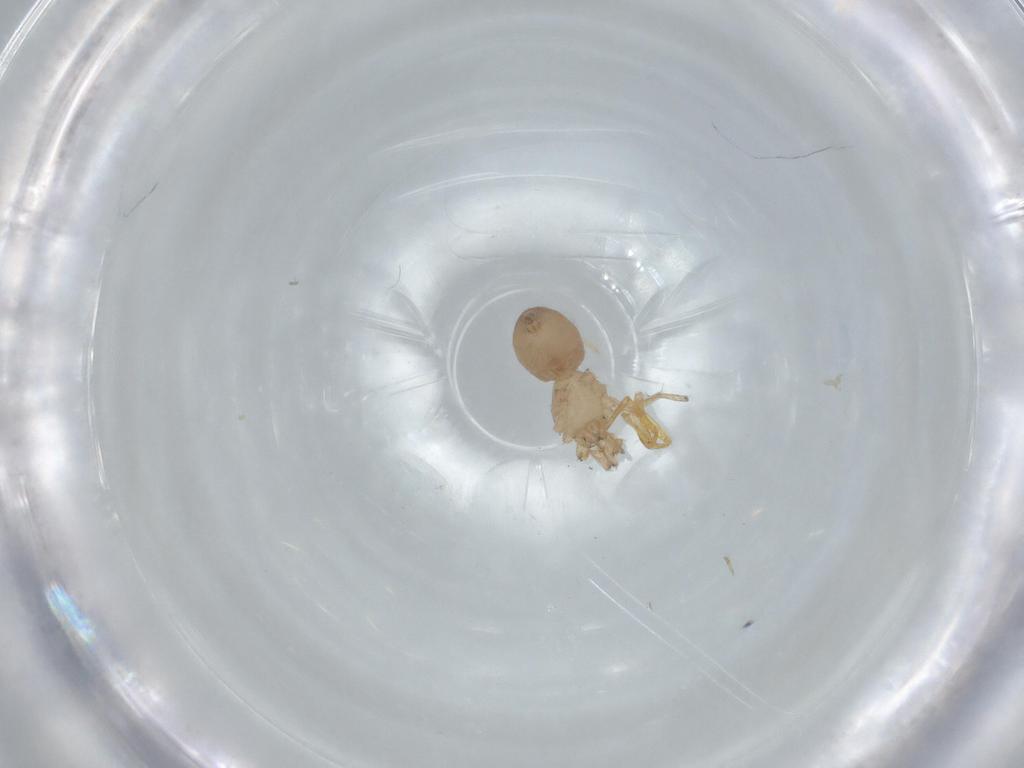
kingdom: Animalia
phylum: Arthropoda
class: Arachnida
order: Araneae
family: Oonopidae
